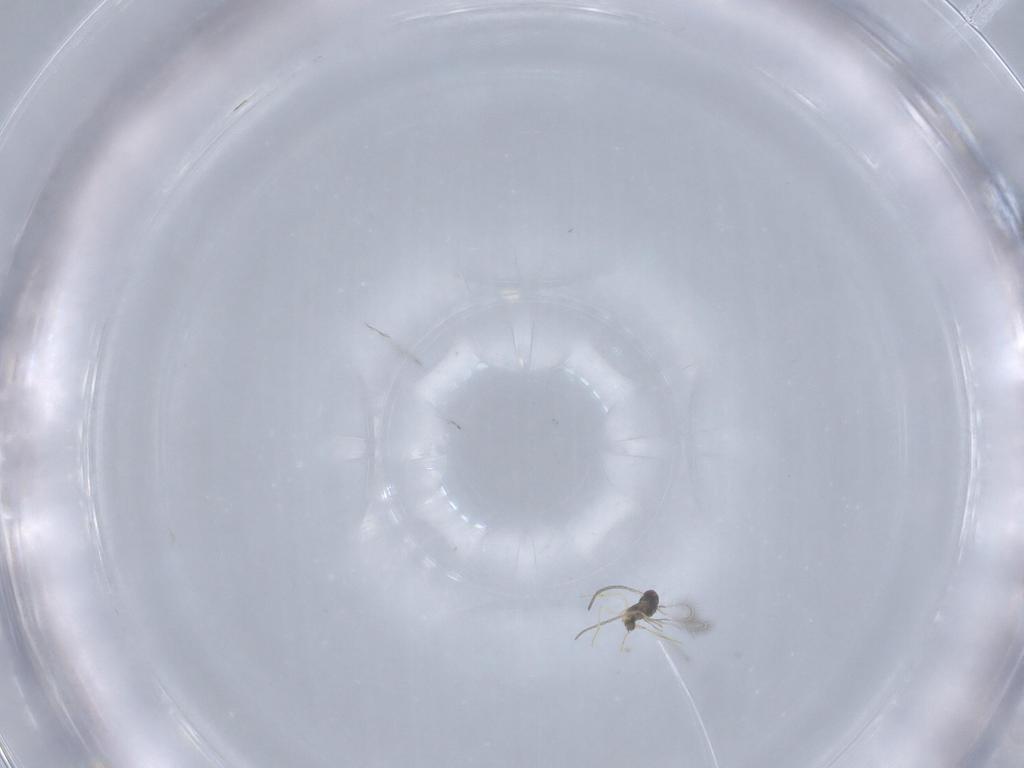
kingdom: Animalia
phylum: Arthropoda
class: Insecta
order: Hymenoptera
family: Mymaridae
